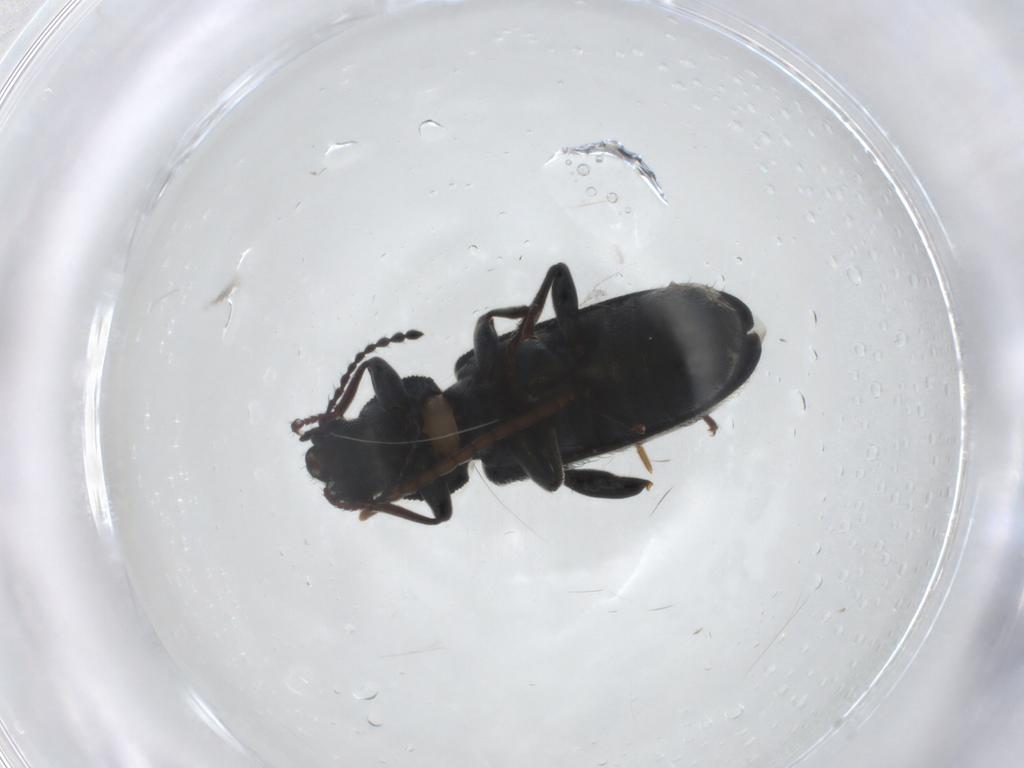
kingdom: Animalia
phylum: Arthropoda
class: Insecta
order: Coleoptera
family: Melyridae
